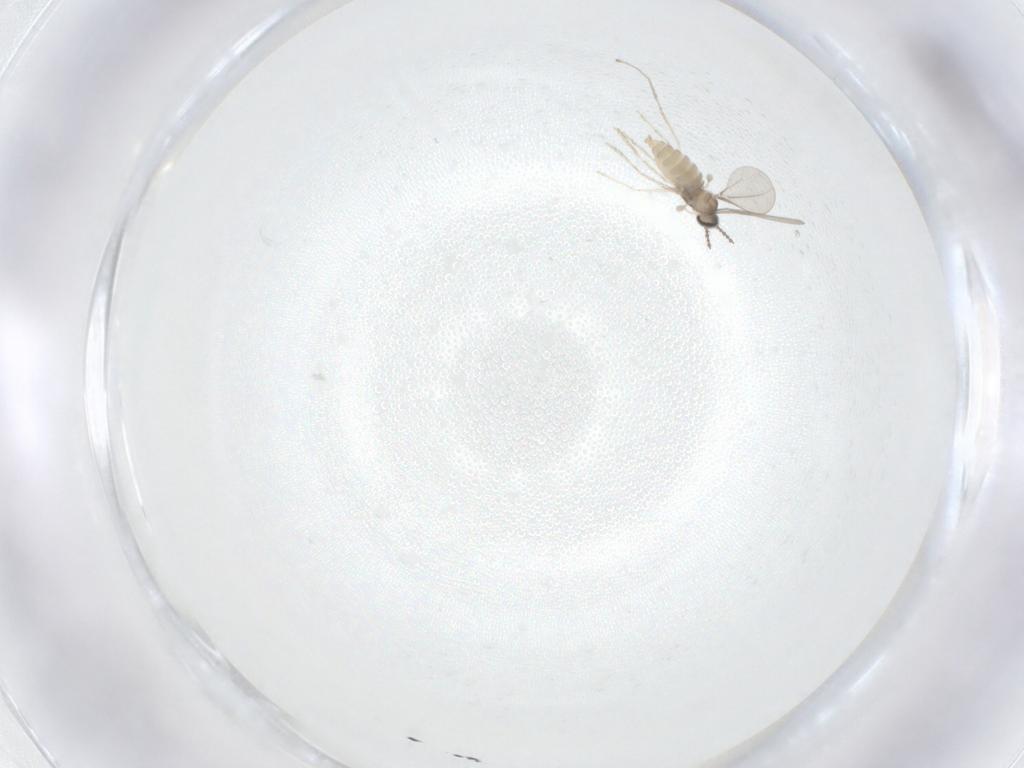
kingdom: Animalia
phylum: Arthropoda
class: Insecta
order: Diptera
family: Sciaridae
